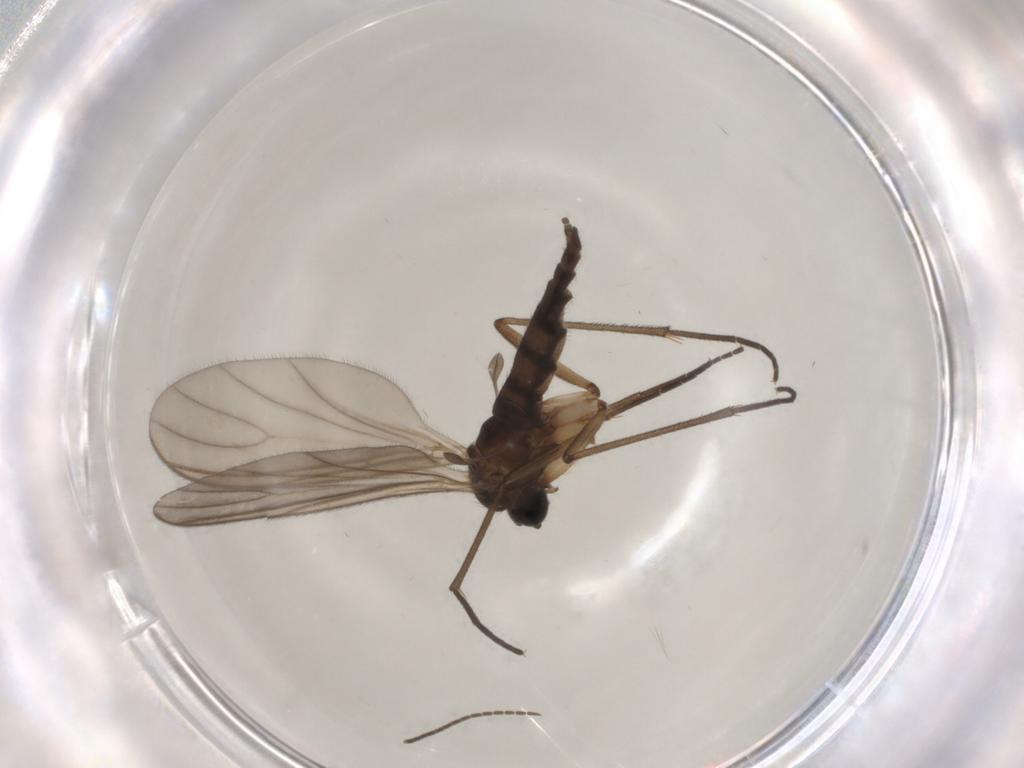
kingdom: Animalia
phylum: Arthropoda
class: Insecta
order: Diptera
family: Sciaridae
